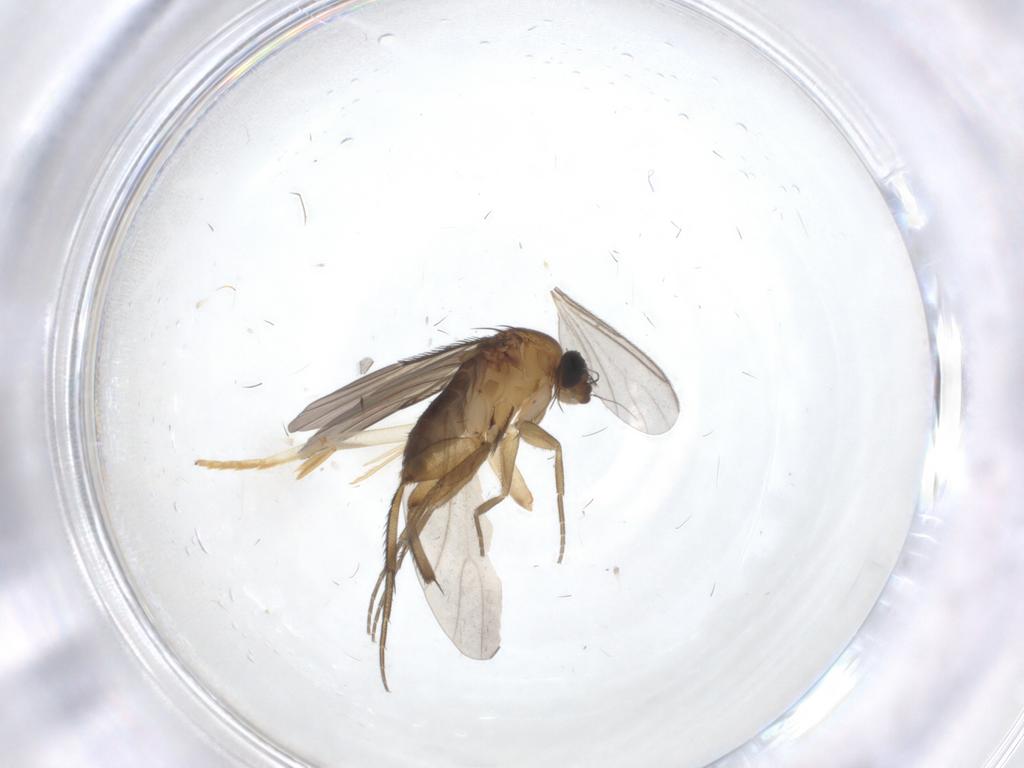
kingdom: Animalia
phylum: Arthropoda
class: Insecta
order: Diptera
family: Phoridae
